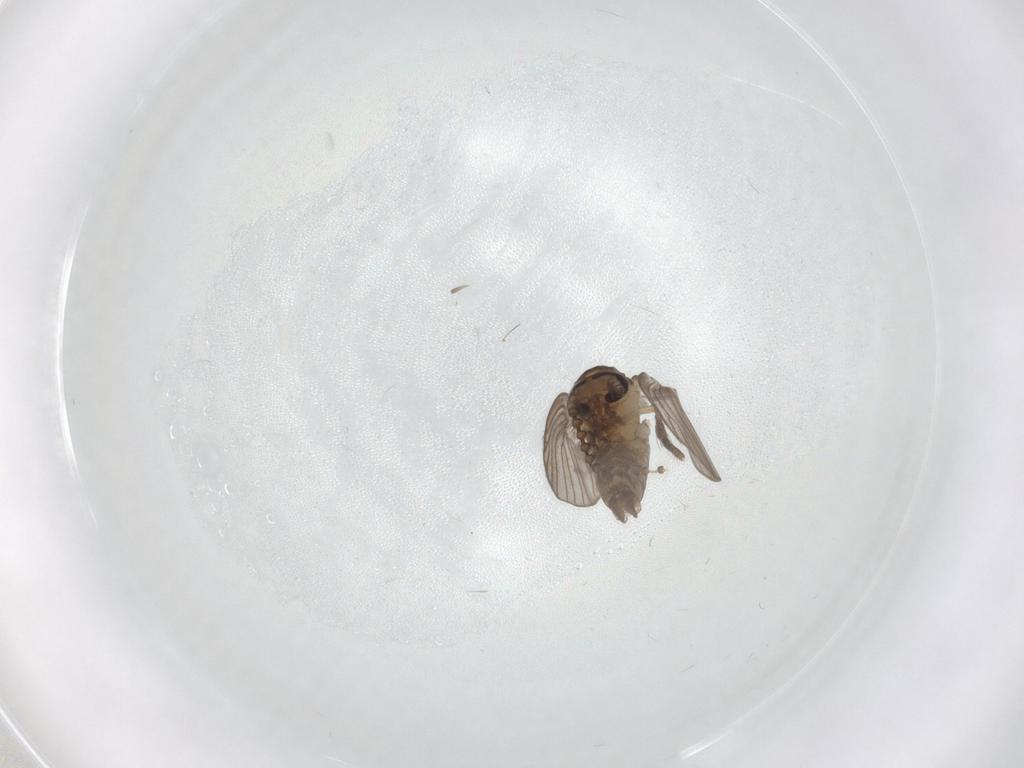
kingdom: Animalia
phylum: Arthropoda
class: Insecta
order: Diptera
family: Psychodidae
